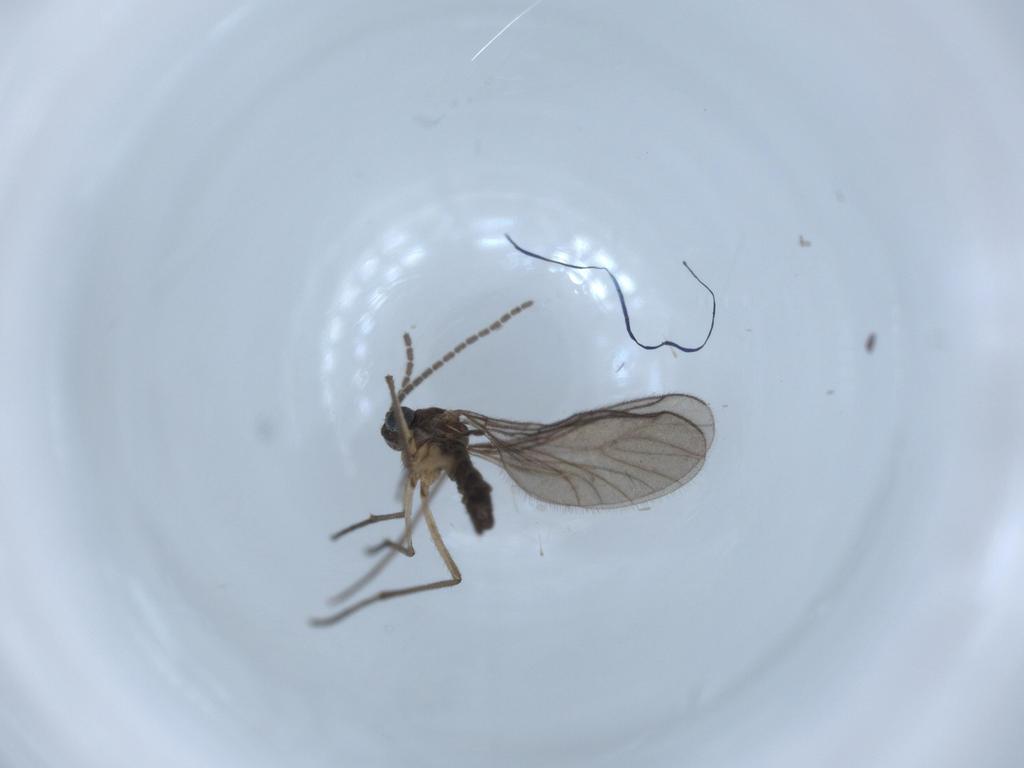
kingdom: Animalia
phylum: Arthropoda
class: Insecta
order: Diptera
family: Sciaridae
